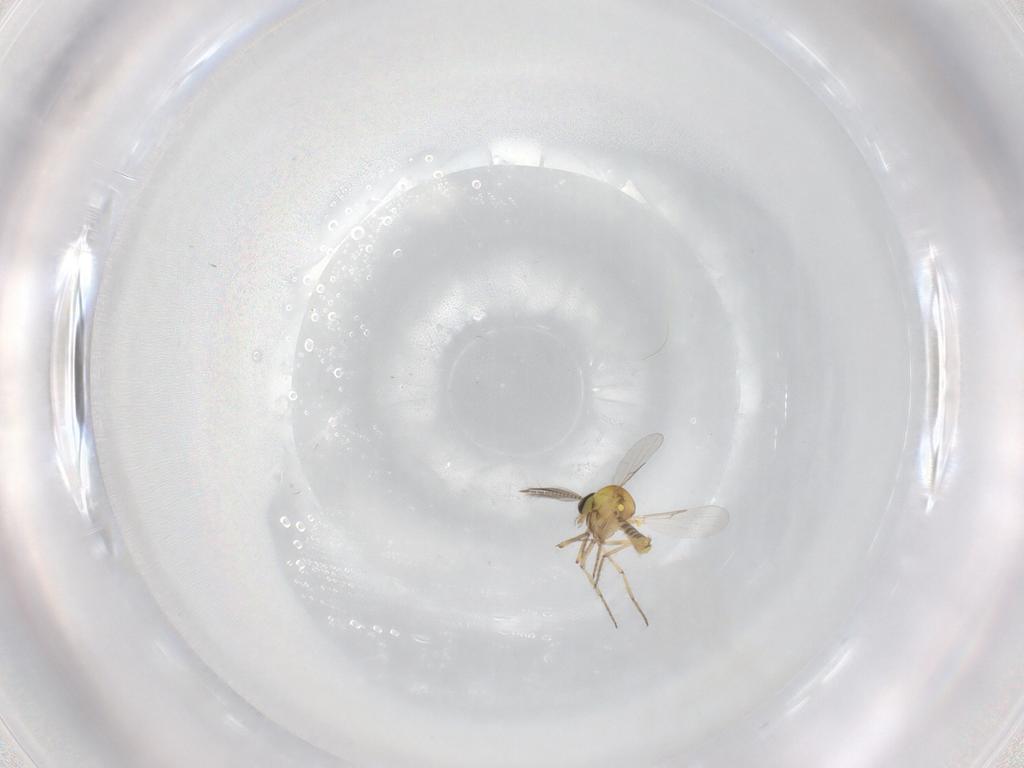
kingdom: Animalia
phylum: Arthropoda
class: Insecta
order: Diptera
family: Ceratopogonidae
